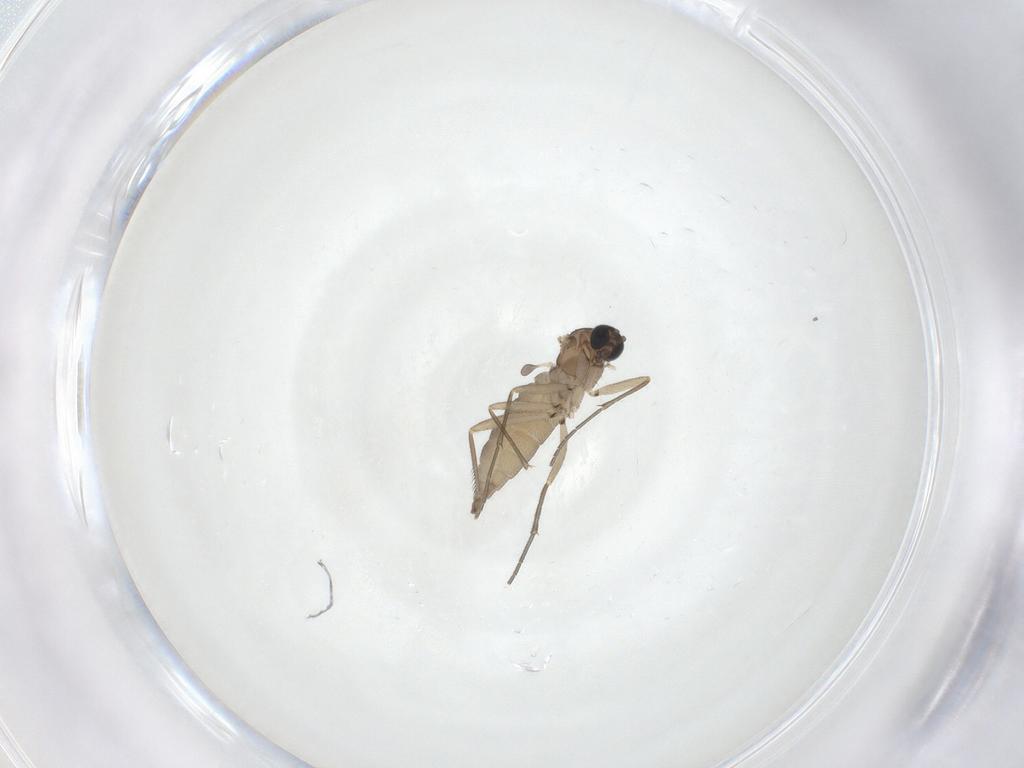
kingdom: Animalia
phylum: Arthropoda
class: Insecta
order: Diptera
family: Sciaridae
